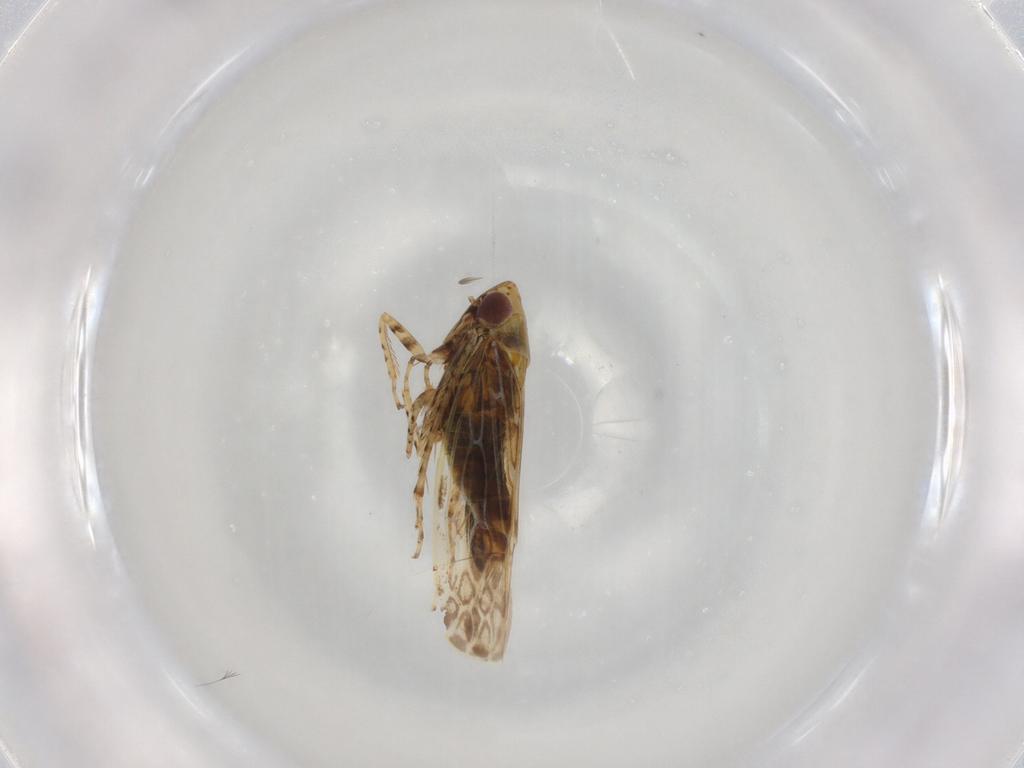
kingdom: Animalia
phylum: Arthropoda
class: Insecta
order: Hemiptera
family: Cicadellidae
